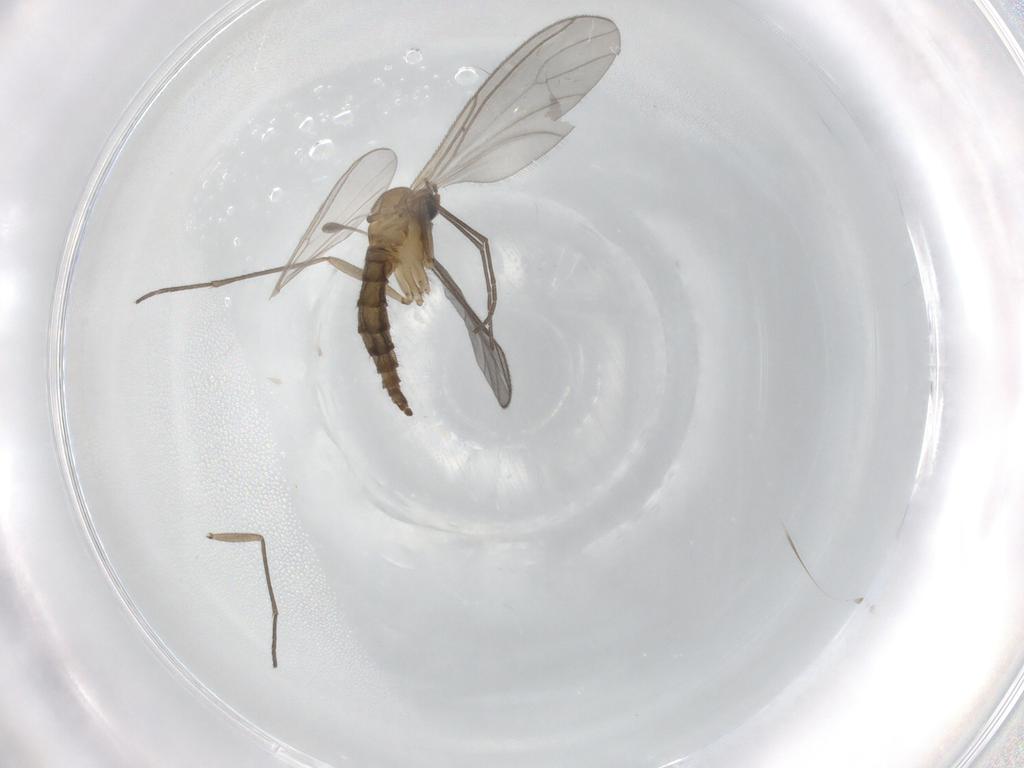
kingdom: Animalia
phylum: Arthropoda
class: Insecta
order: Diptera
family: Sciaridae
